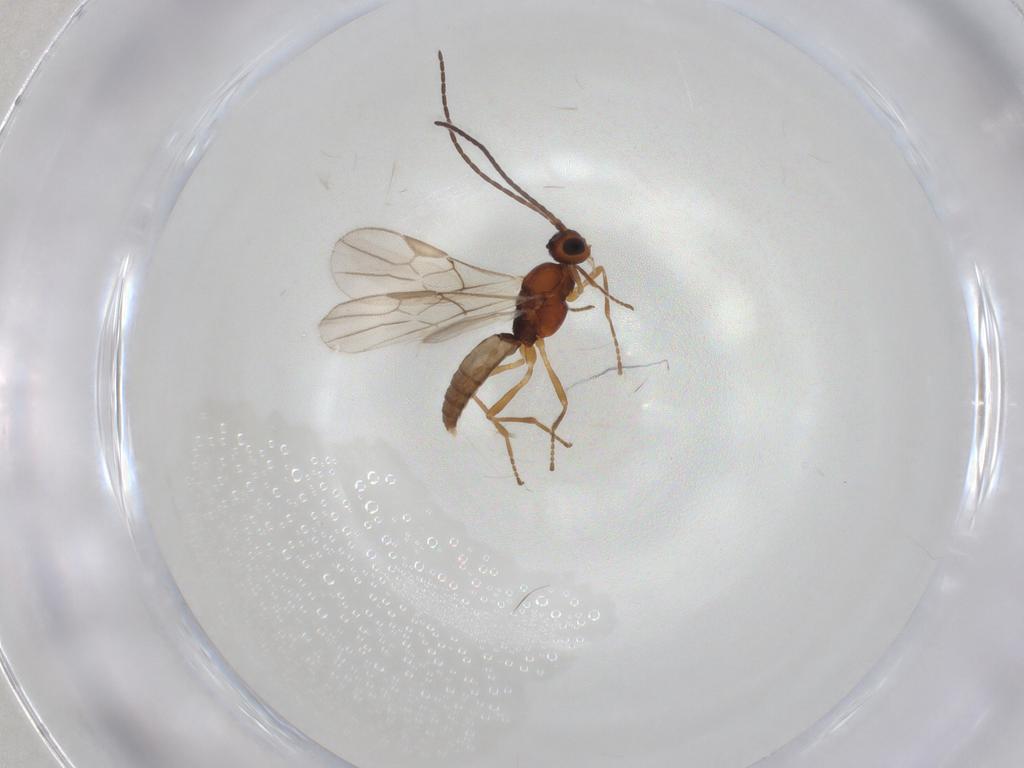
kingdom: Animalia
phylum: Arthropoda
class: Insecta
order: Hymenoptera
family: Braconidae
